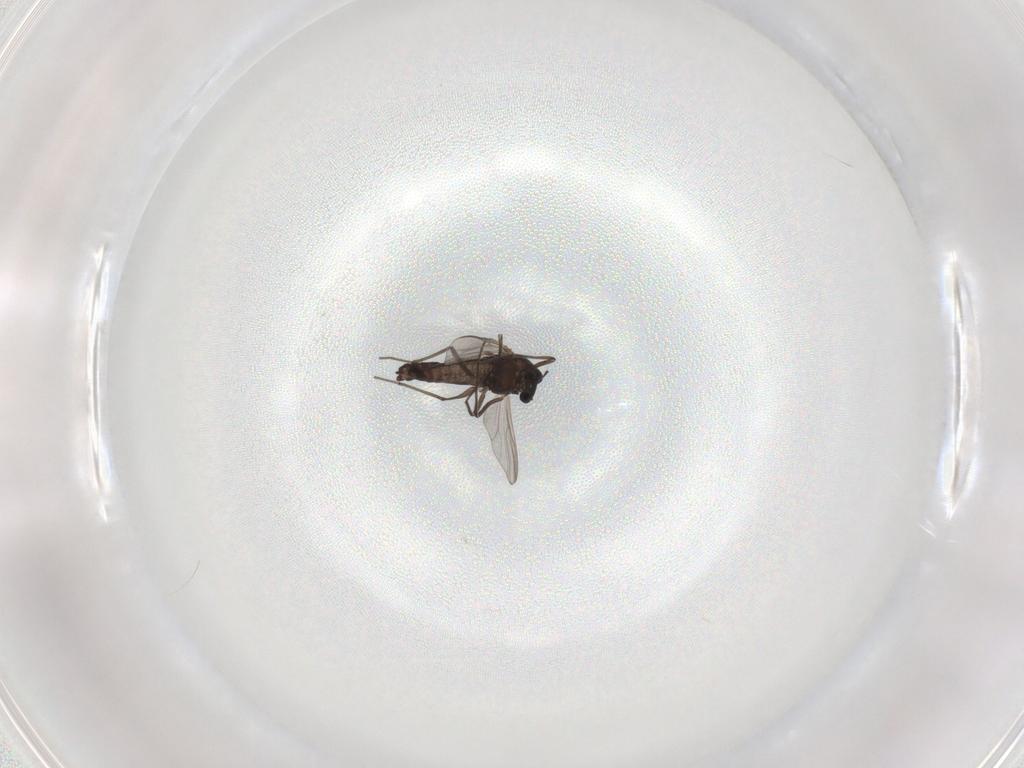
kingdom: Animalia
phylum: Arthropoda
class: Insecta
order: Diptera
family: Chironomidae
